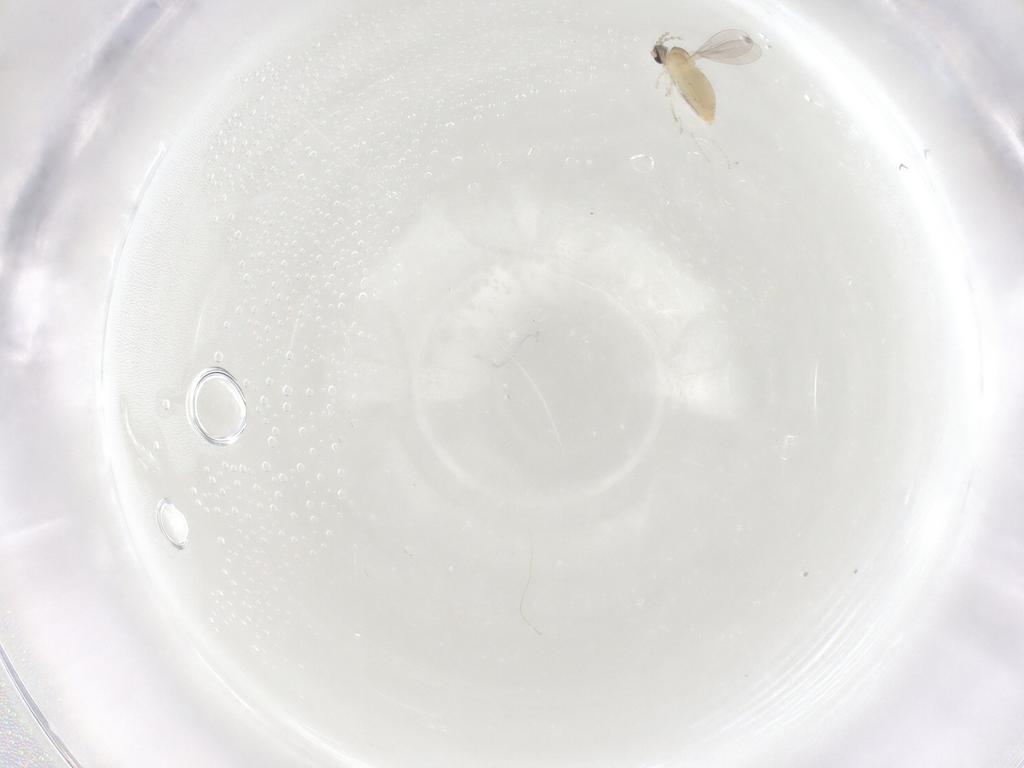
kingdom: Animalia
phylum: Arthropoda
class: Insecta
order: Diptera
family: Cecidomyiidae
